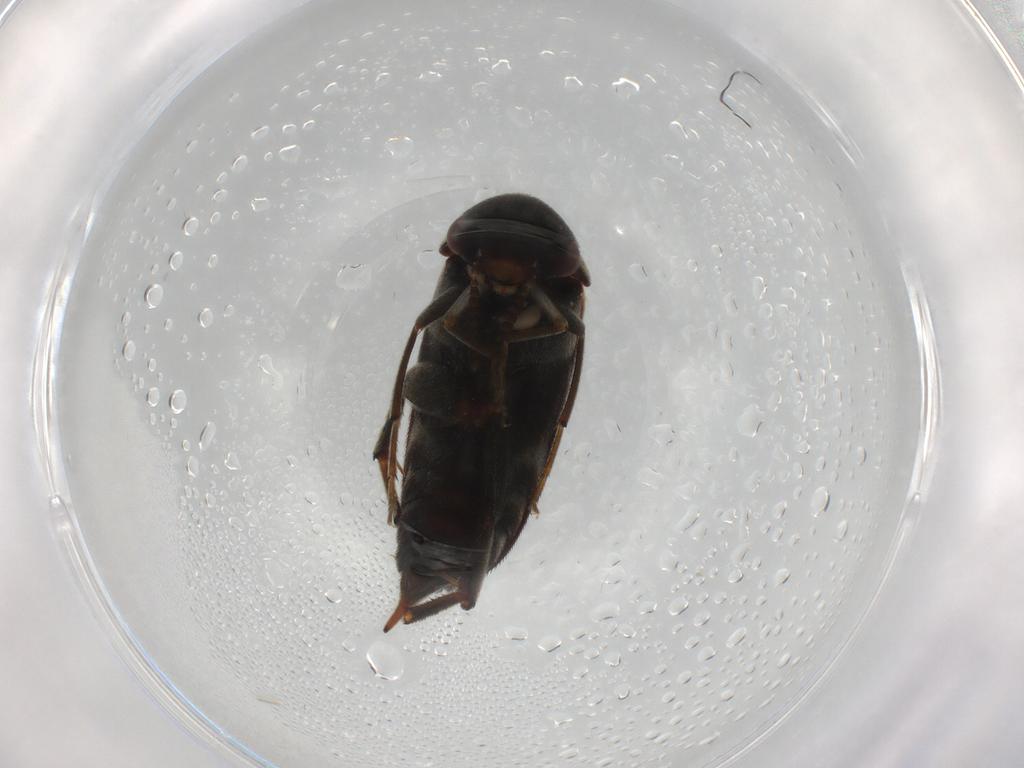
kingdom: Animalia
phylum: Arthropoda
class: Insecta
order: Coleoptera
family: Mordellidae
